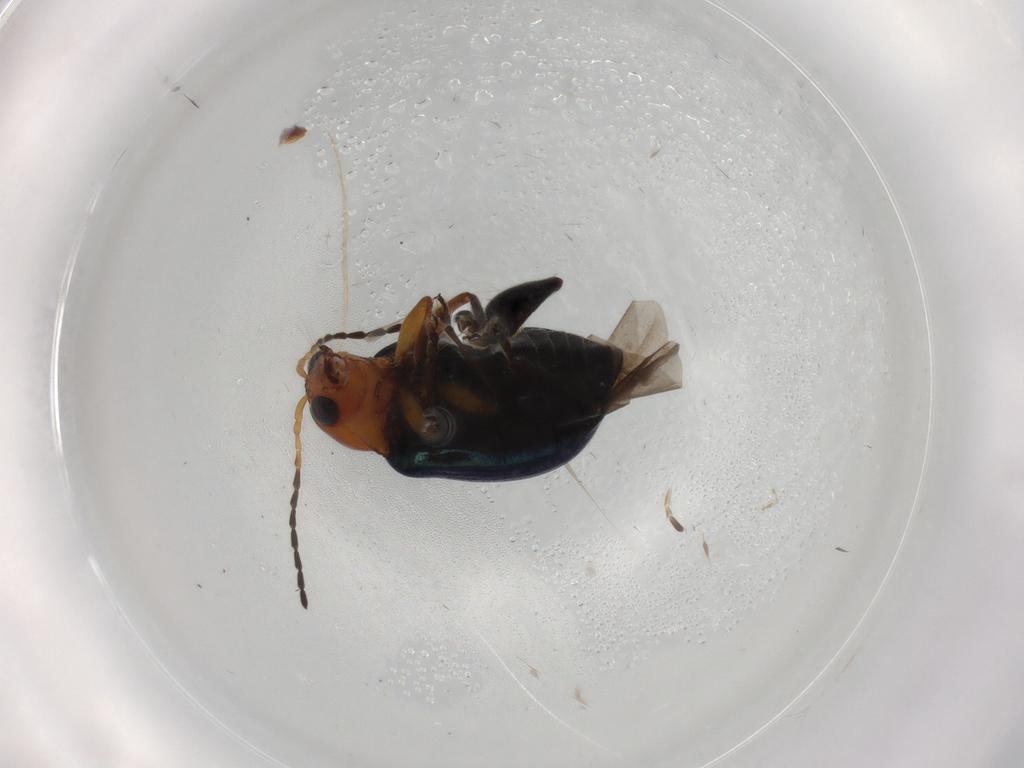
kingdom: Animalia
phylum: Arthropoda
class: Insecta
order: Coleoptera
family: Chrysomelidae
